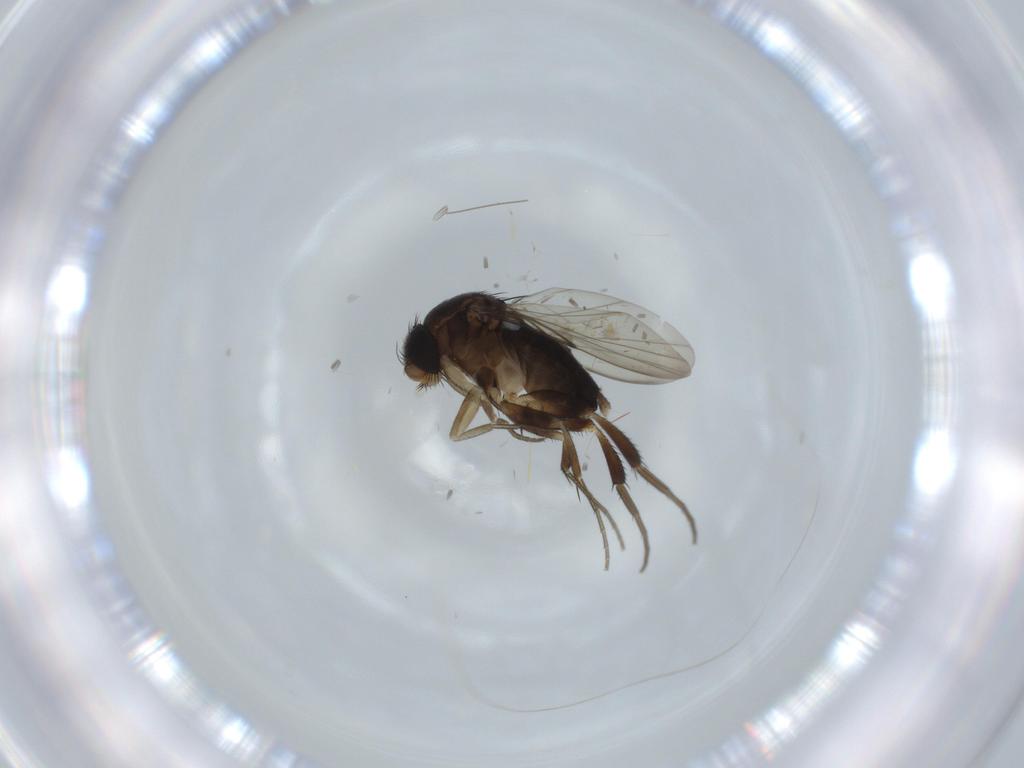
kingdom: Animalia
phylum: Arthropoda
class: Insecta
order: Diptera
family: Phoridae
